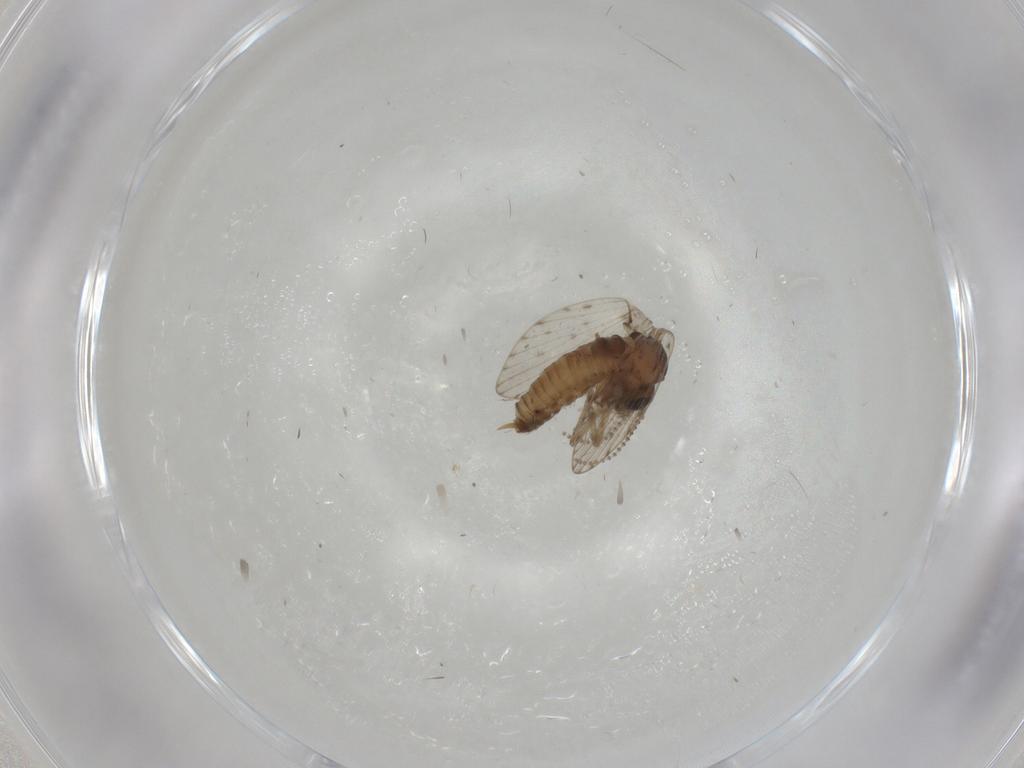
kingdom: Animalia
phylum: Arthropoda
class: Insecta
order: Diptera
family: Psychodidae
